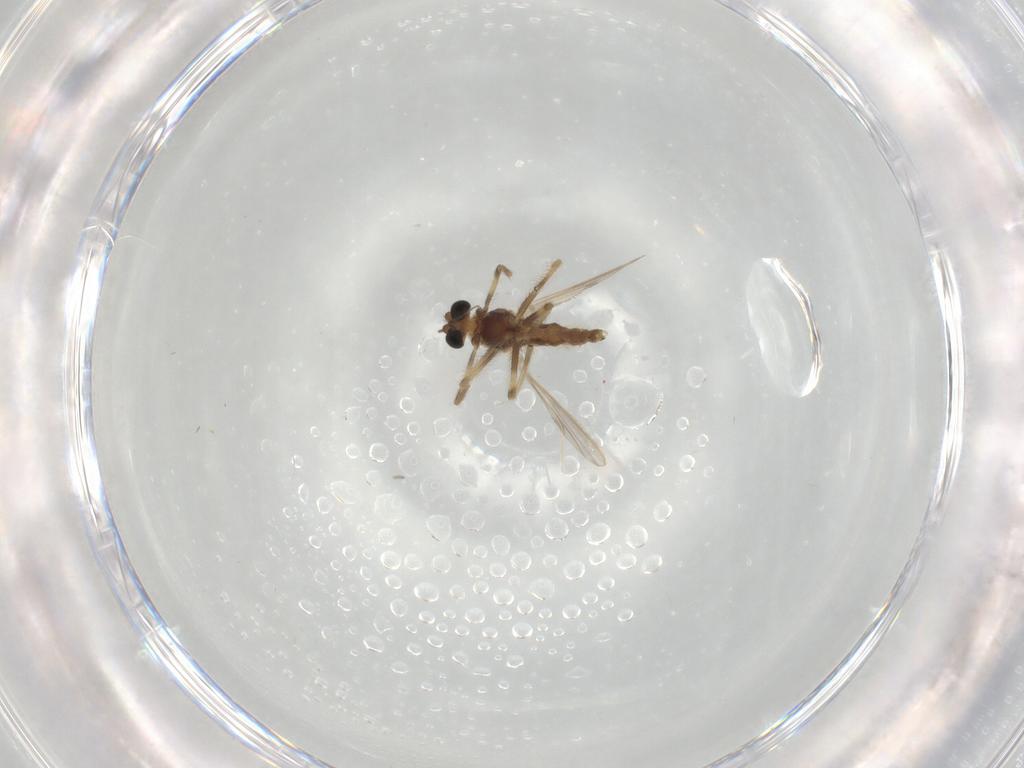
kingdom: Animalia
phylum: Arthropoda
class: Insecta
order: Diptera
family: Chironomidae
